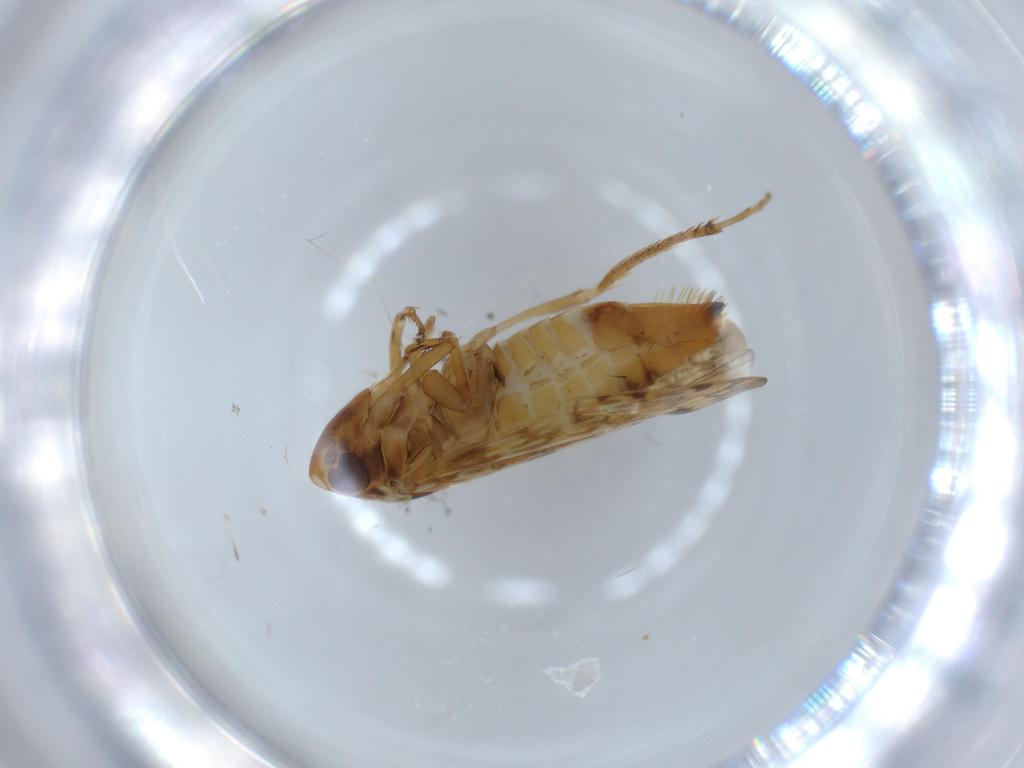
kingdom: Animalia
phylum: Arthropoda
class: Insecta
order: Hemiptera
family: Cicadellidae
